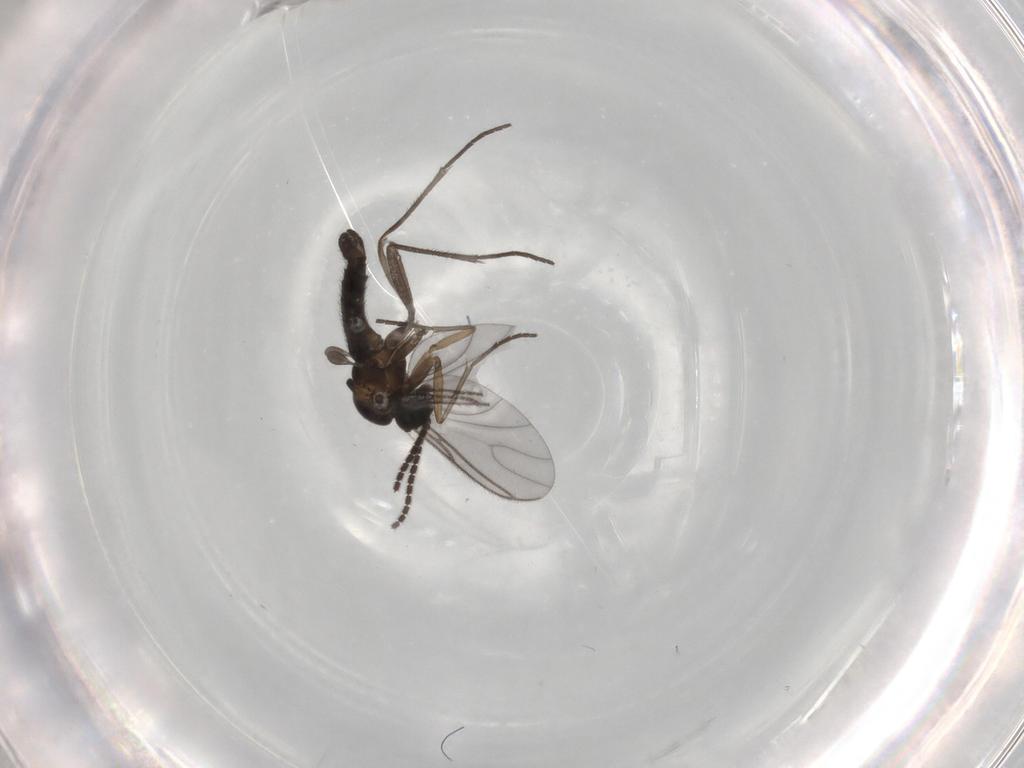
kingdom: Animalia
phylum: Arthropoda
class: Insecta
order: Diptera
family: Sciaridae
